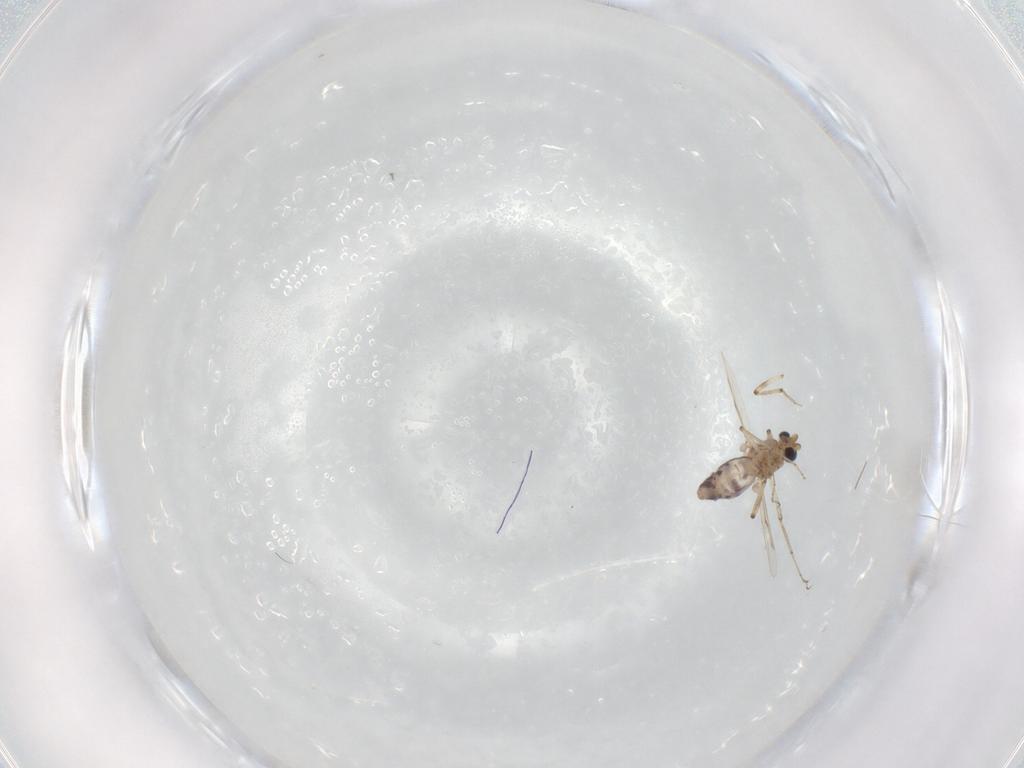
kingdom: Animalia
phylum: Arthropoda
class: Insecta
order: Diptera
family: Ceratopogonidae
